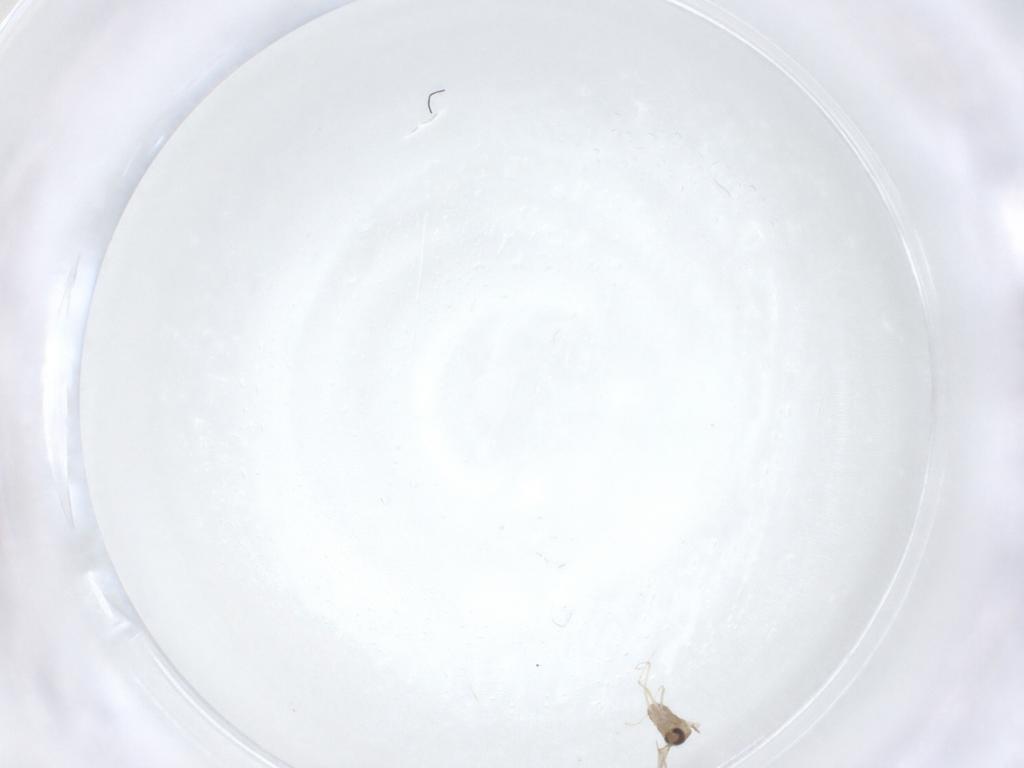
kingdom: Animalia
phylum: Arthropoda
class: Insecta
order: Diptera
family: Cecidomyiidae
